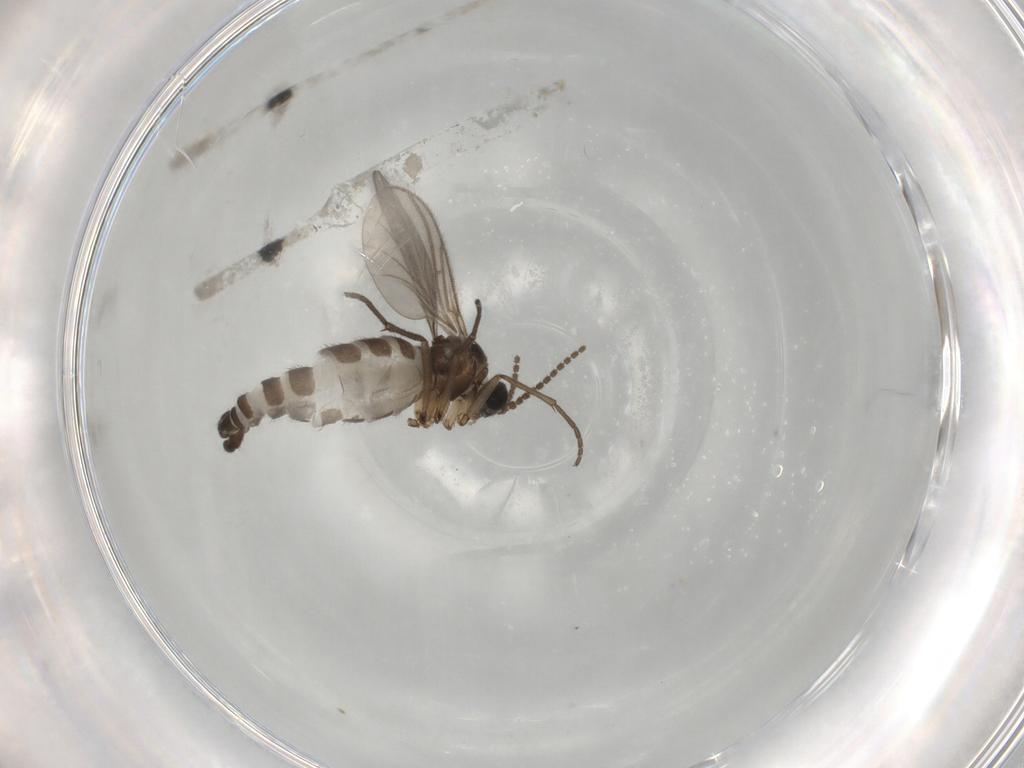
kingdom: Animalia
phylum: Arthropoda
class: Insecta
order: Diptera
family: Sciaridae
